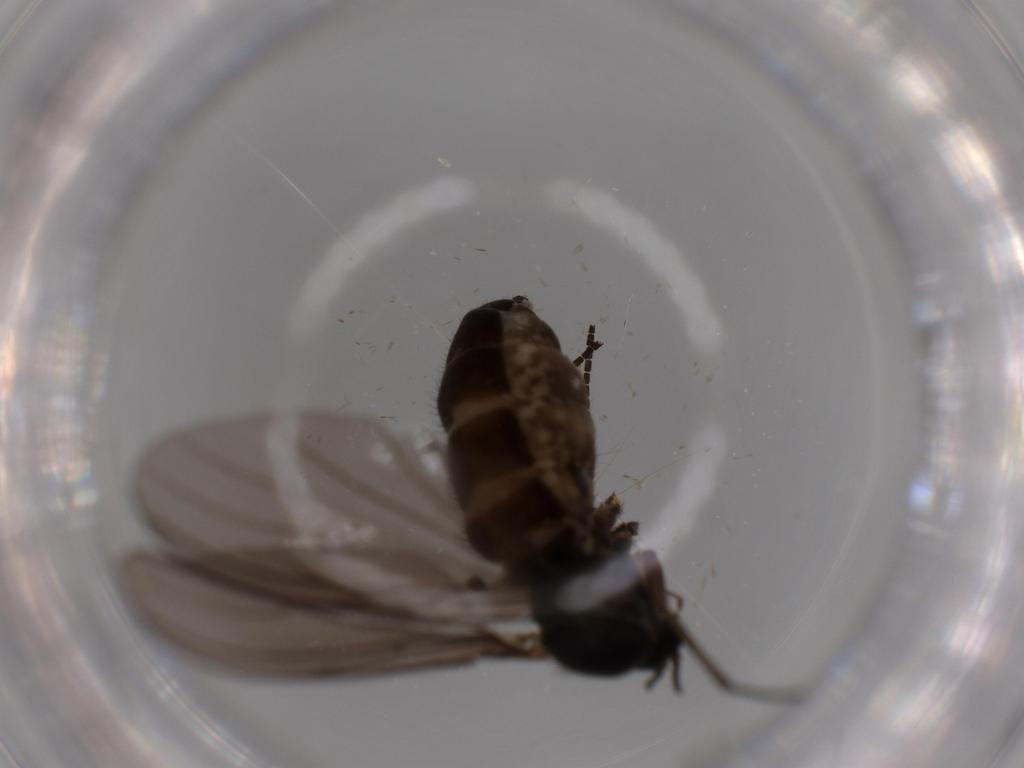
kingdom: Animalia
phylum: Arthropoda
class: Insecta
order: Diptera
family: Sciaridae
